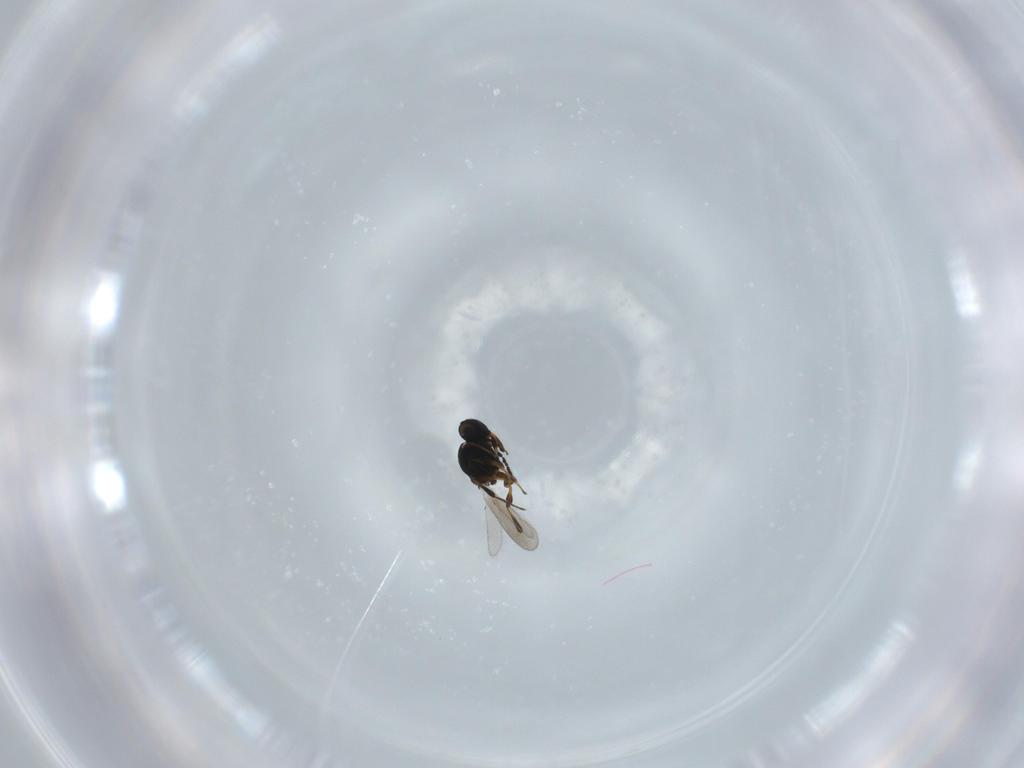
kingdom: Animalia
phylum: Arthropoda
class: Insecta
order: Hymenoptera
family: Platygastridae
